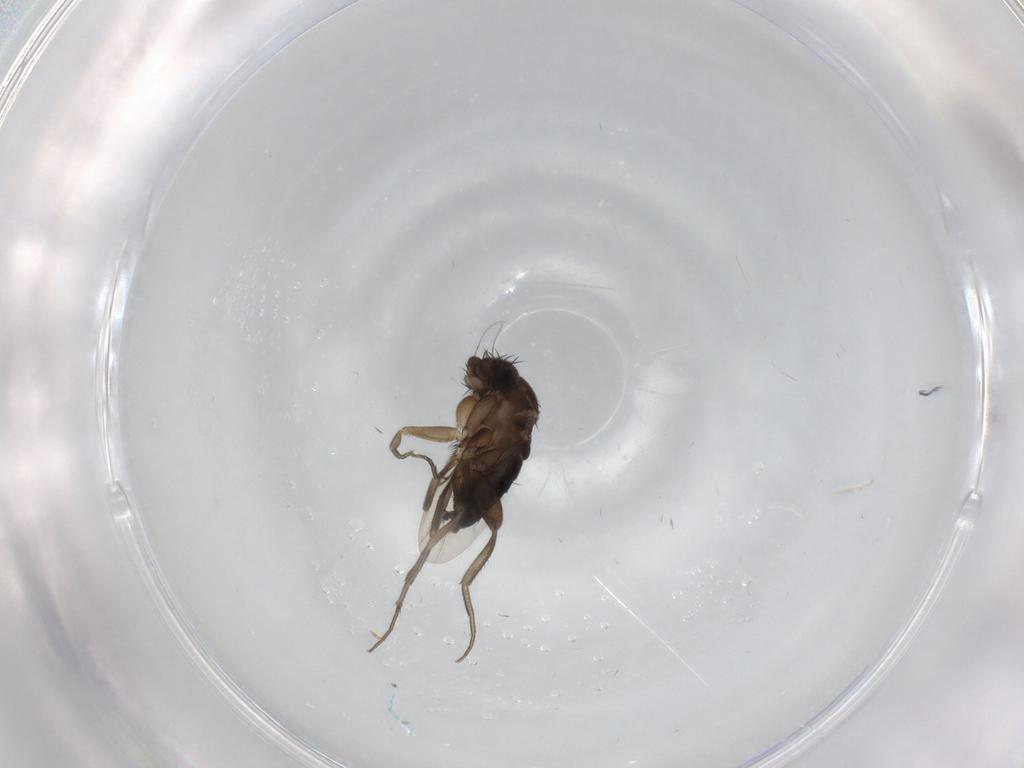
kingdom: Animalia
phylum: Arthropoda
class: Insecta
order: Diptera
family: Phoridae
